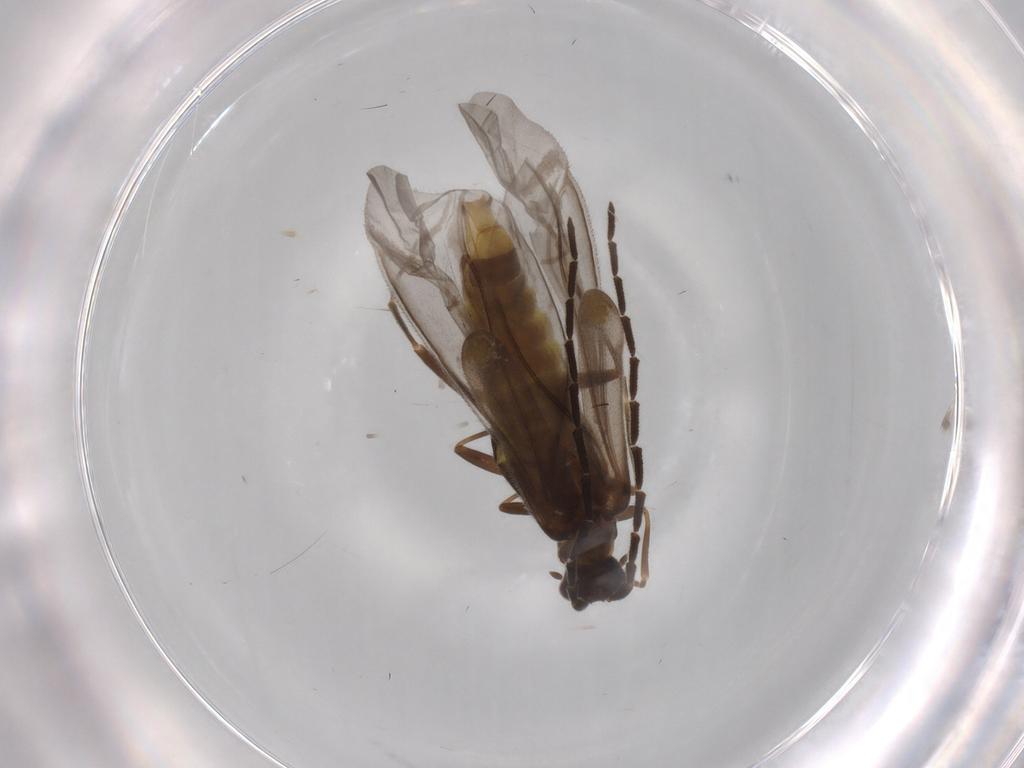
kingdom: Animalia
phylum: Arthropoda
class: Insecta
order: Coleoptera
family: Cantharidae
